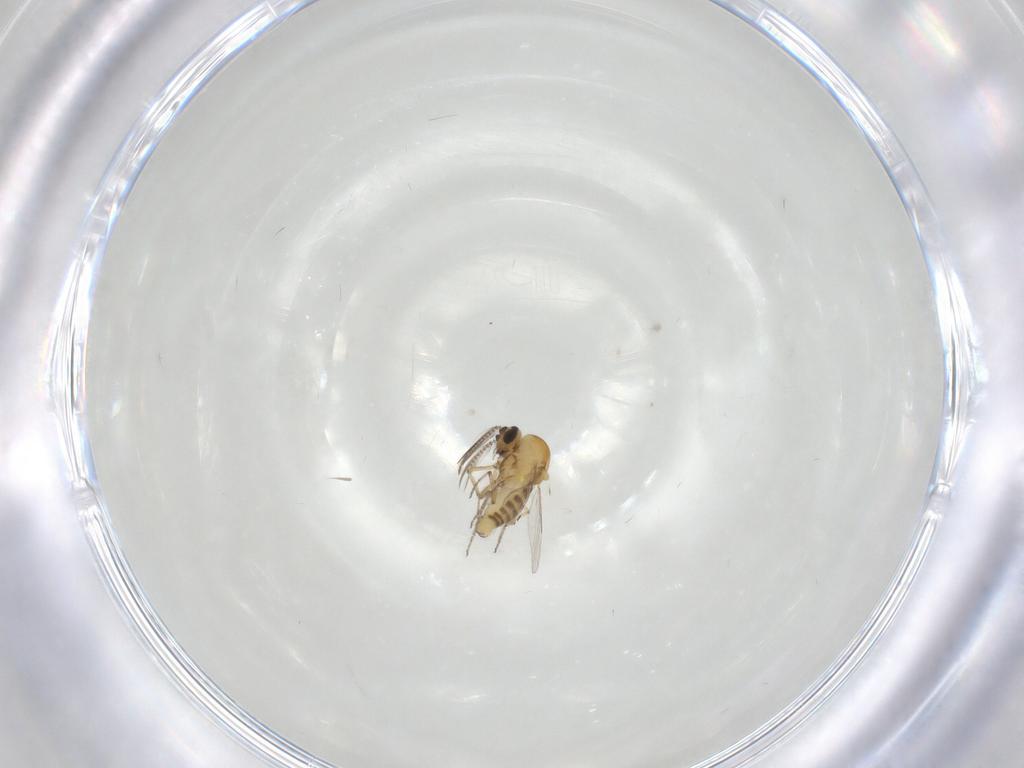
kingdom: Animalia
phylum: Arthropoda
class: Insecta
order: Diptera
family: Ceratopogonidae
